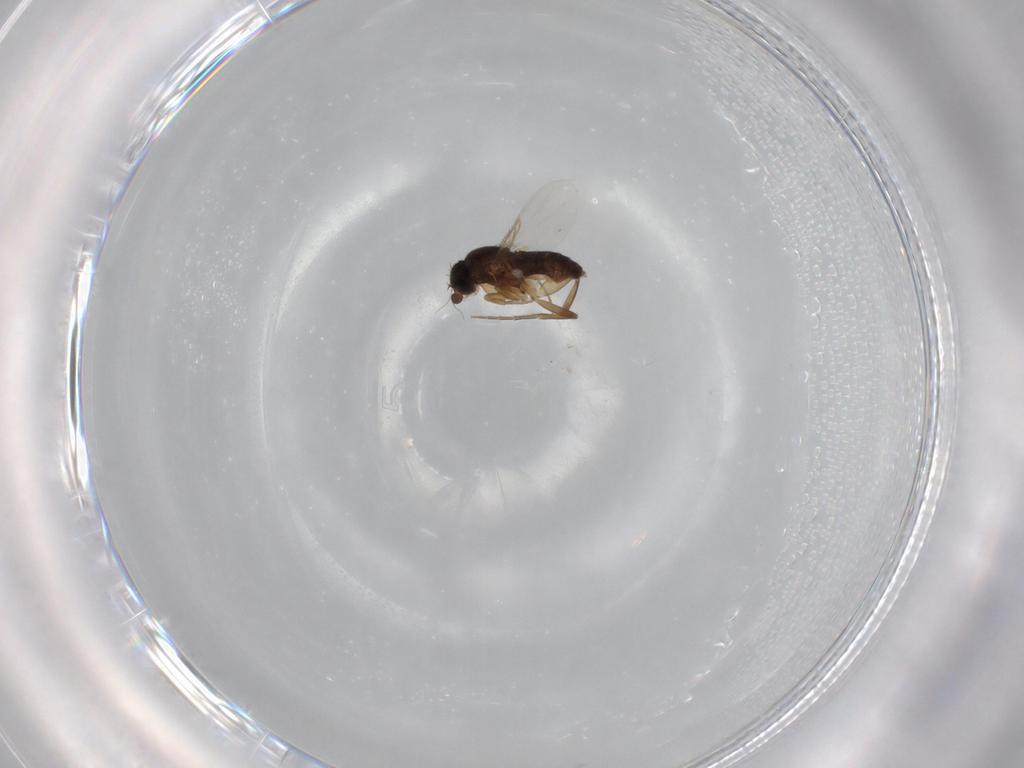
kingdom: Animalia
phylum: Arthropoda
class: Insecta
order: Diptera
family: Phoridae
